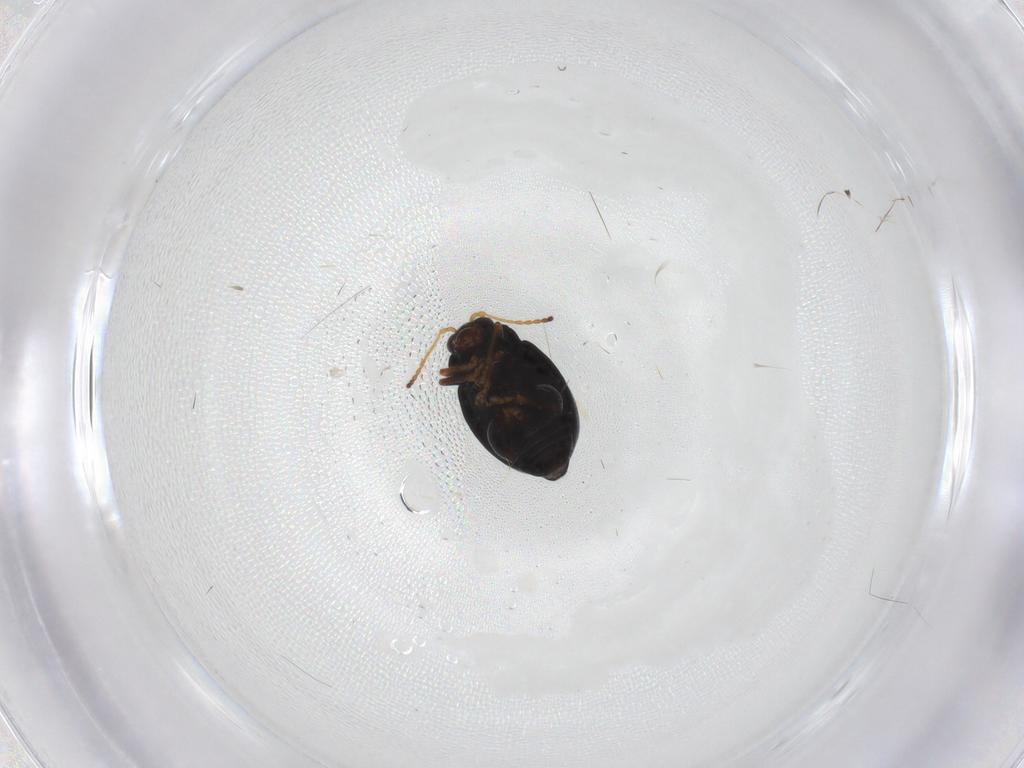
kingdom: Animalia
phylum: Arthropoda
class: Insecta
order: Coleoptera
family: Chrysomelidae
